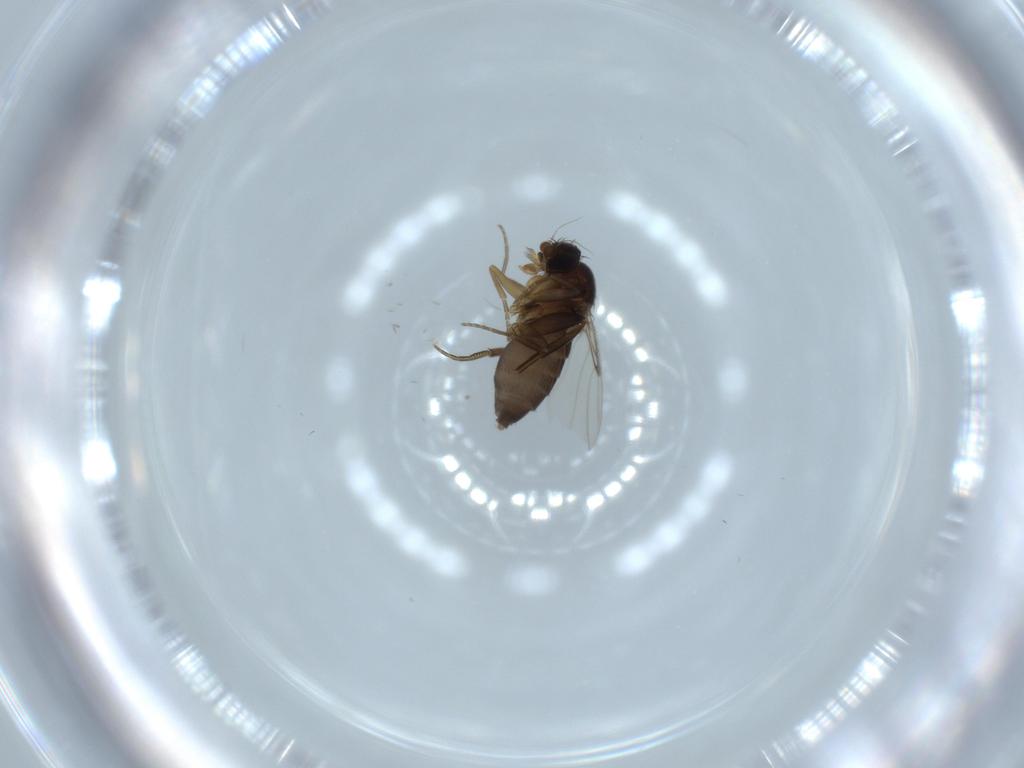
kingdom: Animalia
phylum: Arthropoda
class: Insecta
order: Diptera
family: Phoridae
